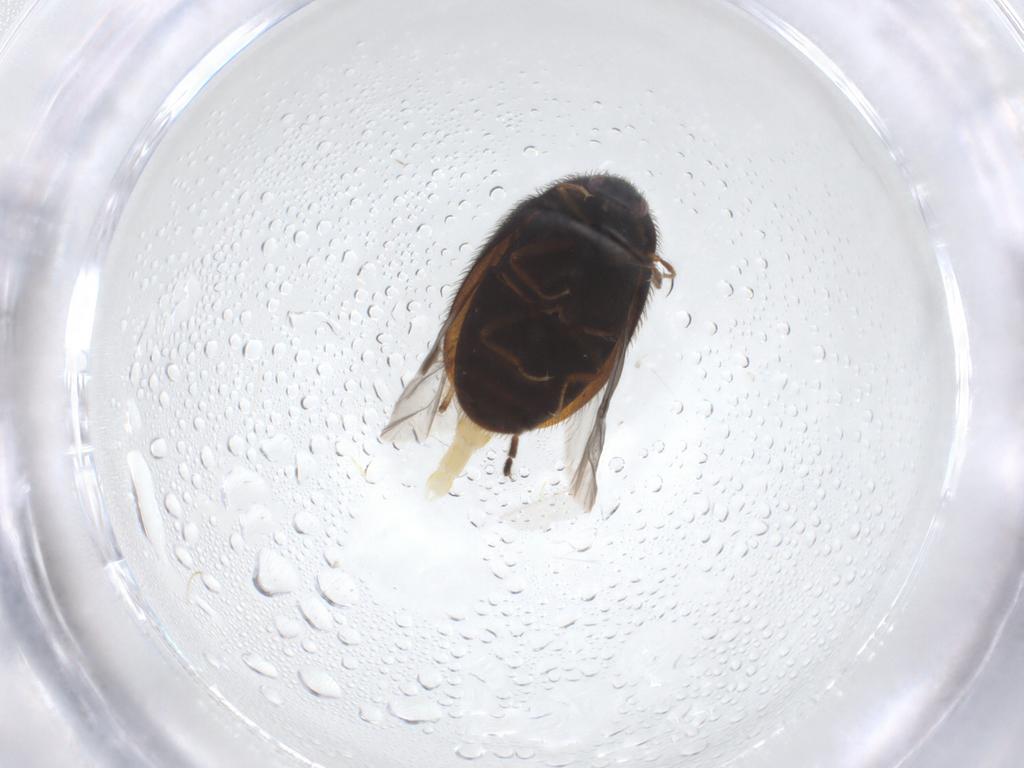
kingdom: Animalia
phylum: Arthropoda
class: Insecta
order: Coleoptera
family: Dermestidae
